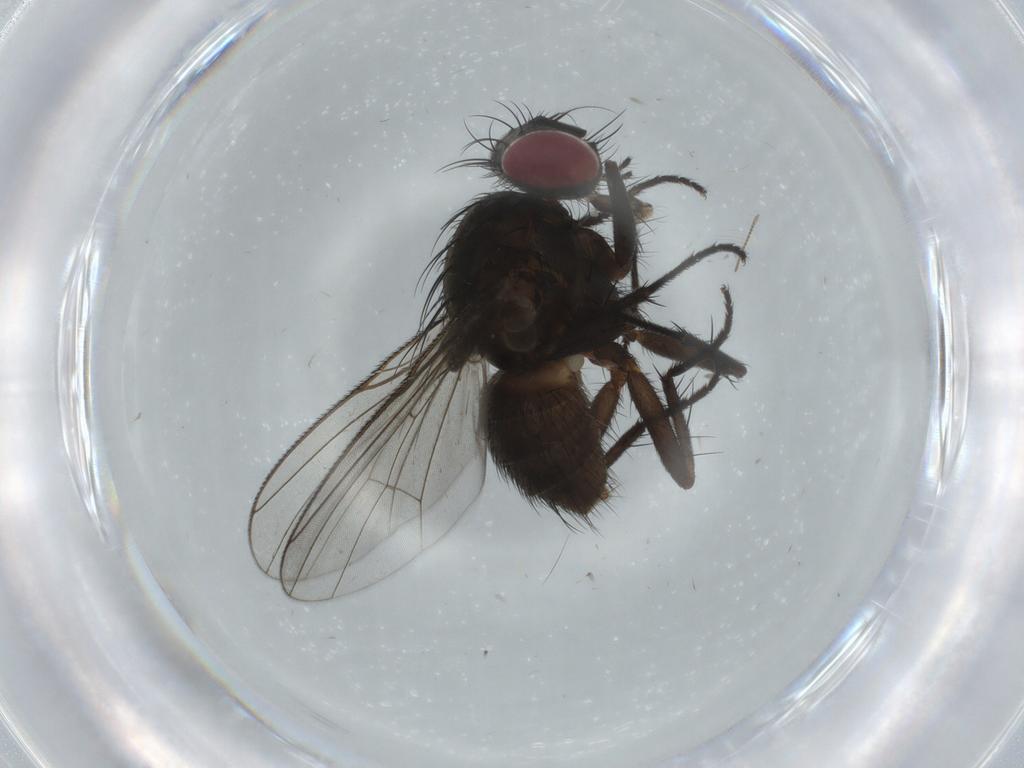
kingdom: Animalia
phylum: Arthropoda
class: Insecta
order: Diptera
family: Muscidae
